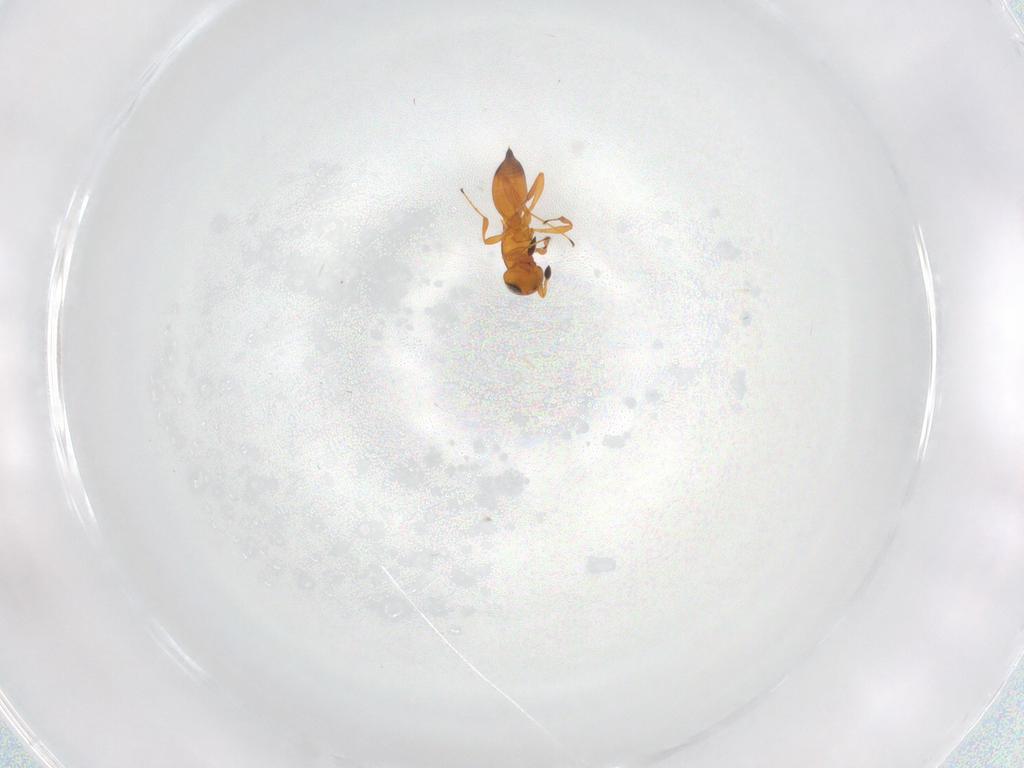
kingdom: Animalia
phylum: Arthropoda
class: Insecta
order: Hymenoptera
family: Platygastridae
